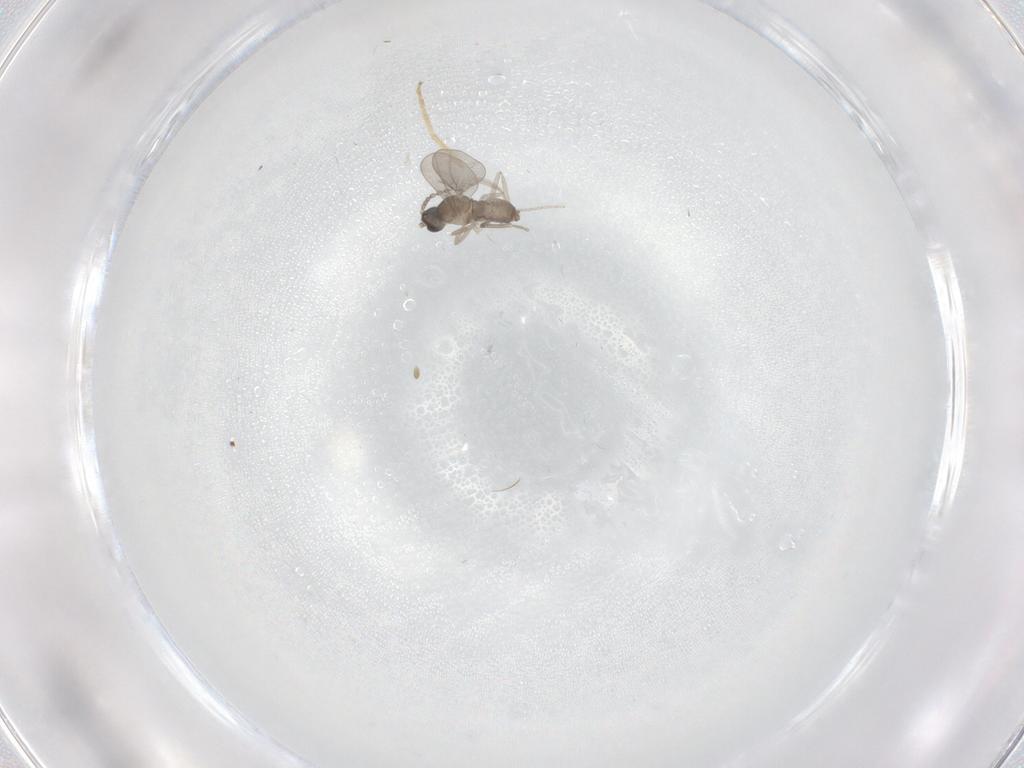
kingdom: Animalia
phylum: Arthropoda
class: Insecta
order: Diptera
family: Cecidomyiidae
